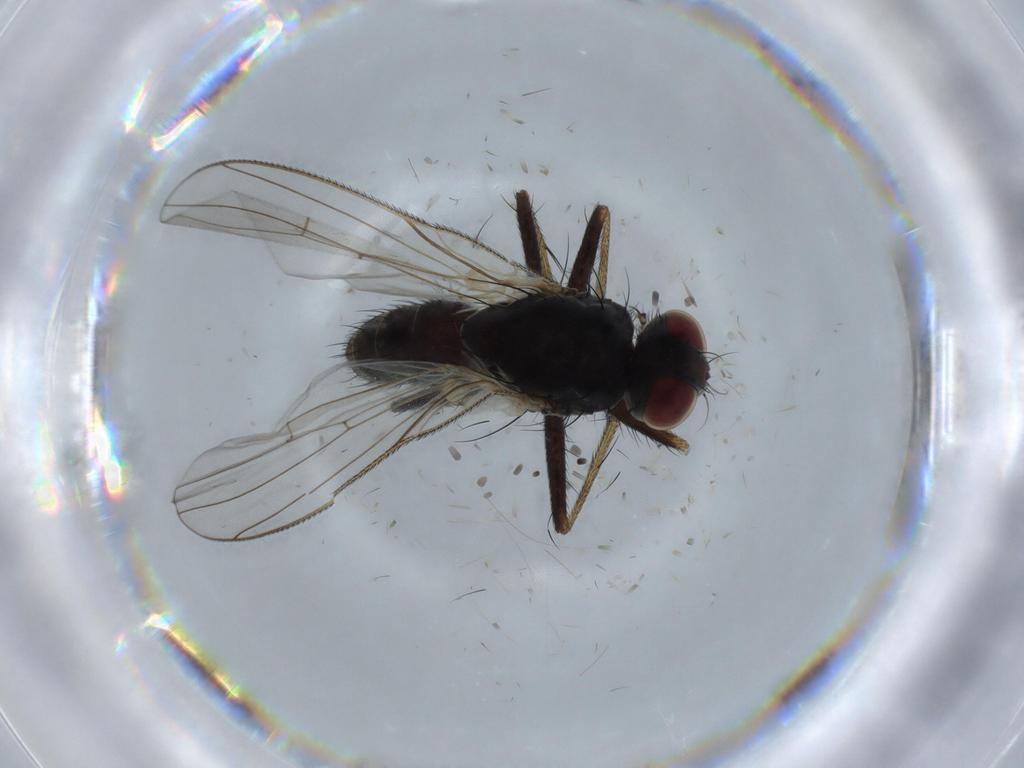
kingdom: Animalia
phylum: Arthropoda
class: Insecta
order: Diptera
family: Muscidae
